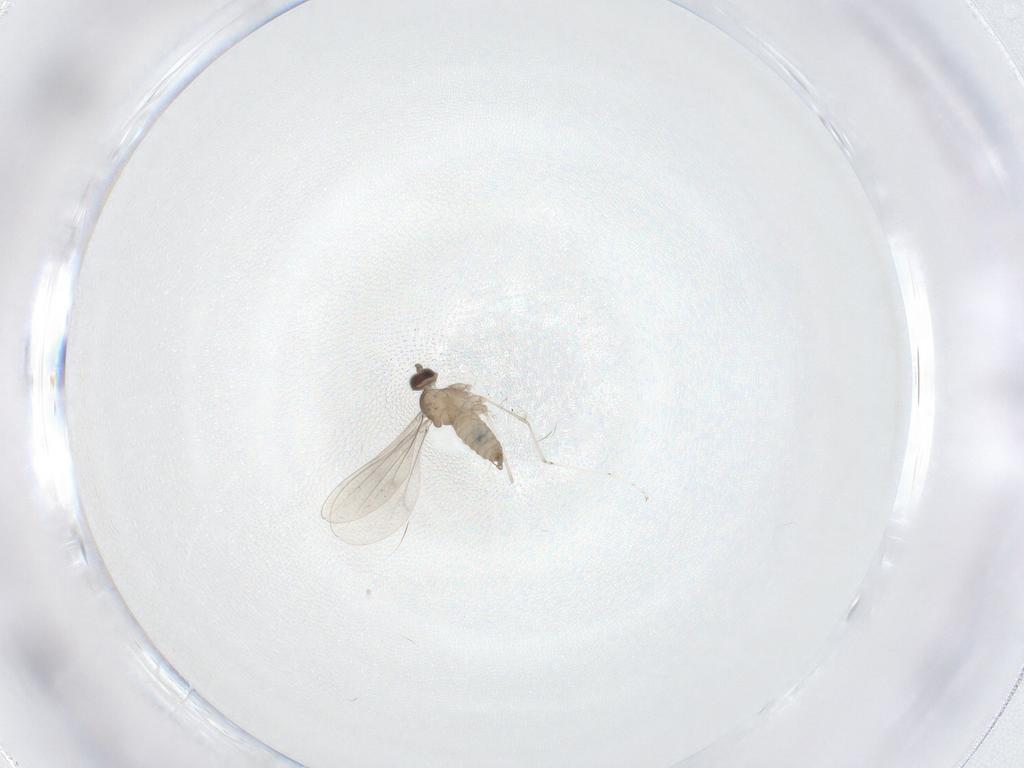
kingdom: Animalia
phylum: Arthropoda
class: Insecta
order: Diptera
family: Cecidomyiidae
